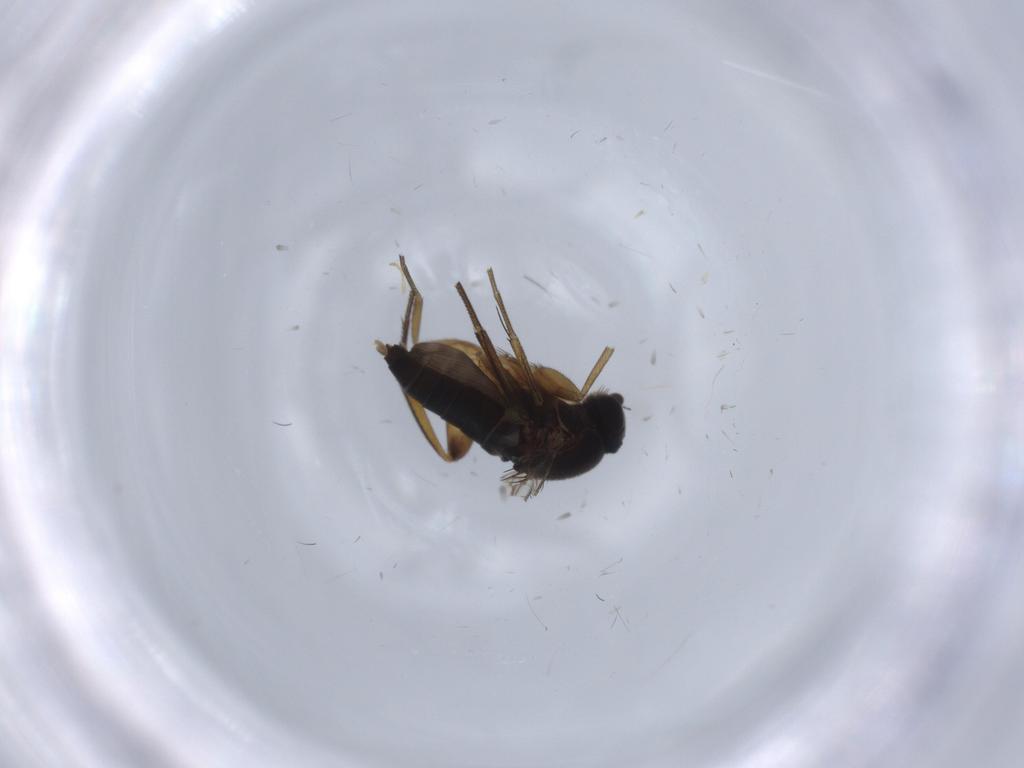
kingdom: Animalia
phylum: Arthropoda
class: Insecta
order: Diptera
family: Phoridae
